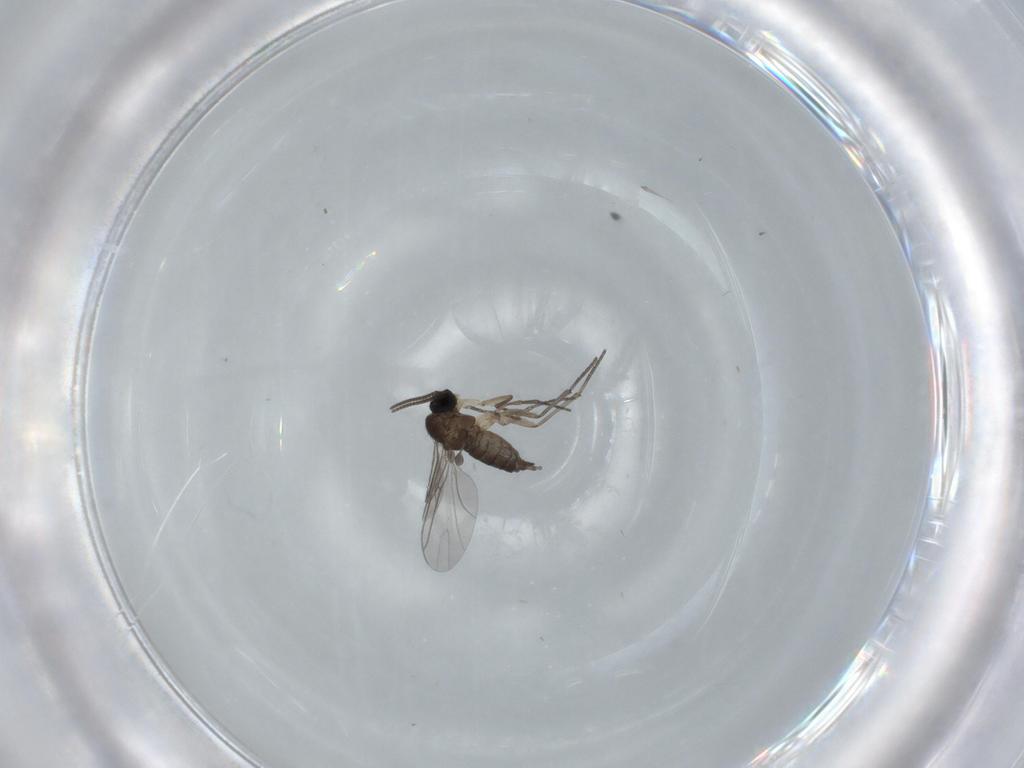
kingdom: Animalia
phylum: Arthropoda
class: Insecta
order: Diptera
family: Sciaridae
